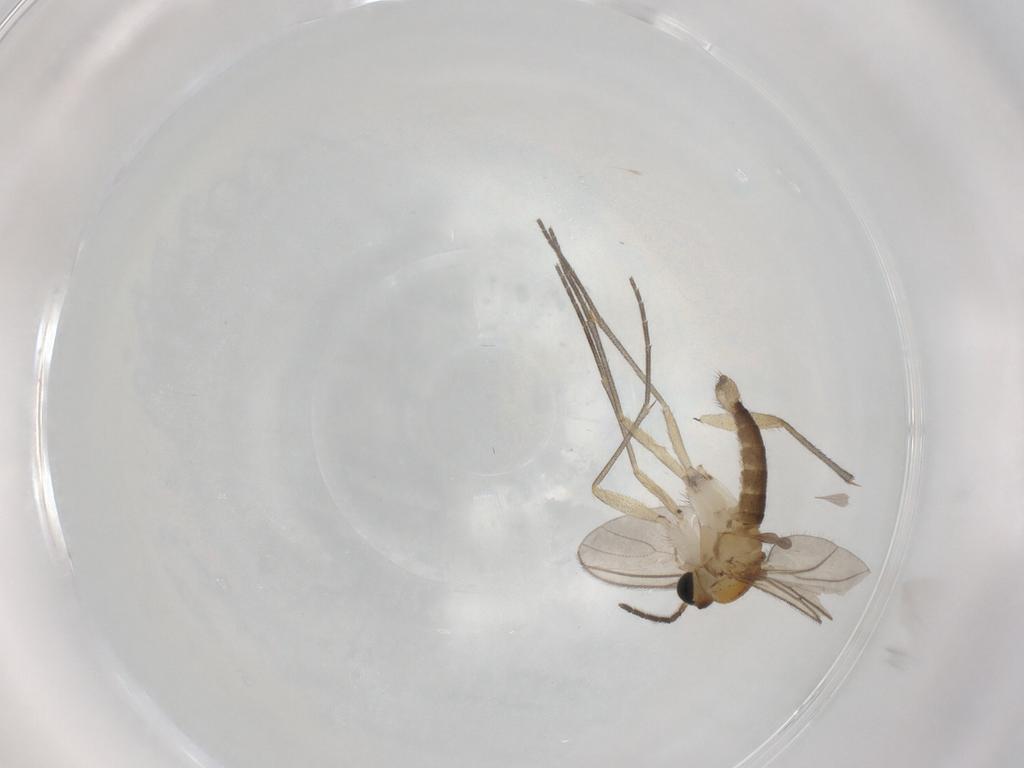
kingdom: Animalia
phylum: Arthropoda
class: Insecta
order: Diptera
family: Sciaridae
